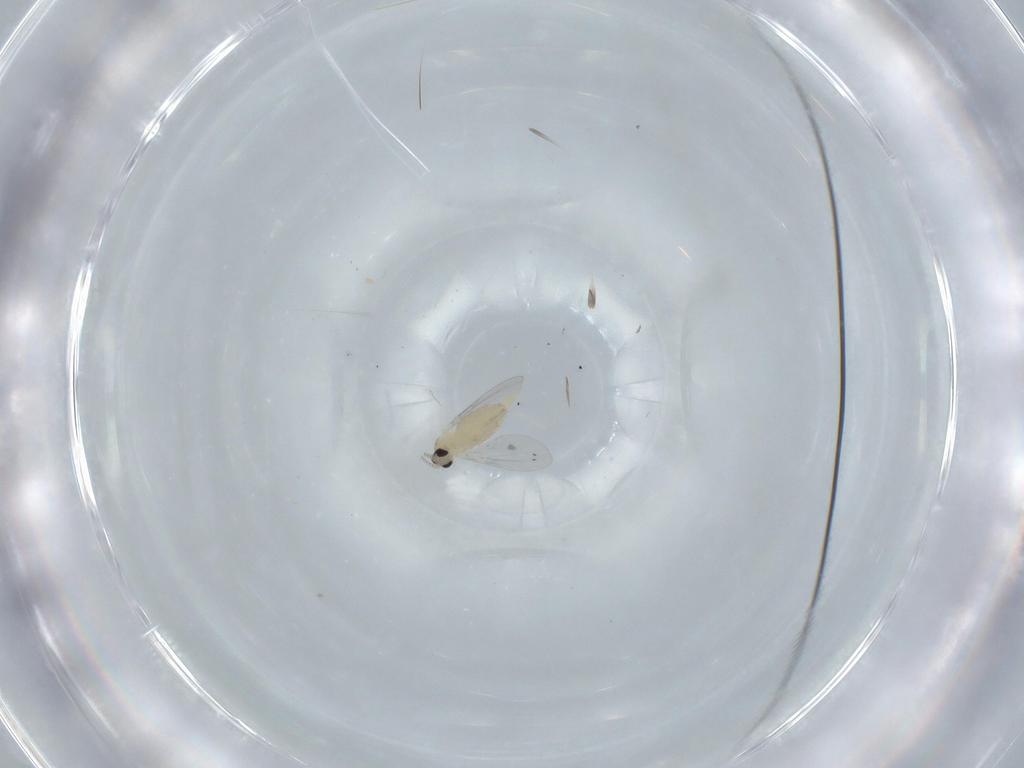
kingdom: Animalia
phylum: Arthropoda
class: Insecta
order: Diptera
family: Cecidomyiidae
